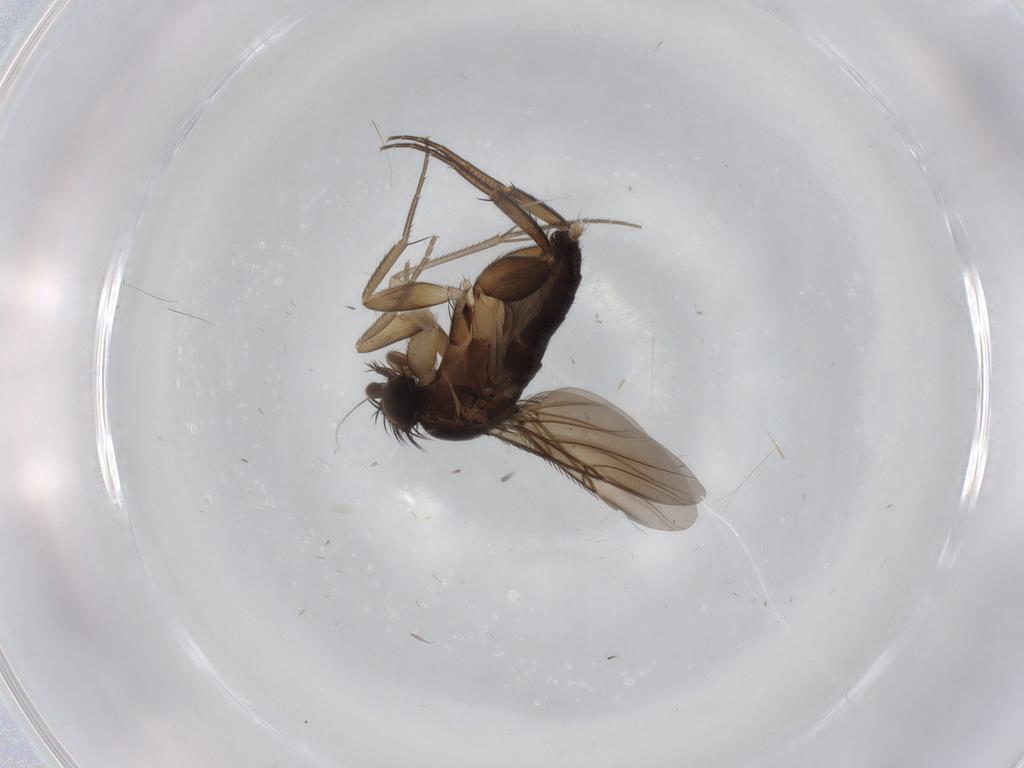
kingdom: Animalia
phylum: Arthropoda
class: Insecta
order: Diptera
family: Phoridae
